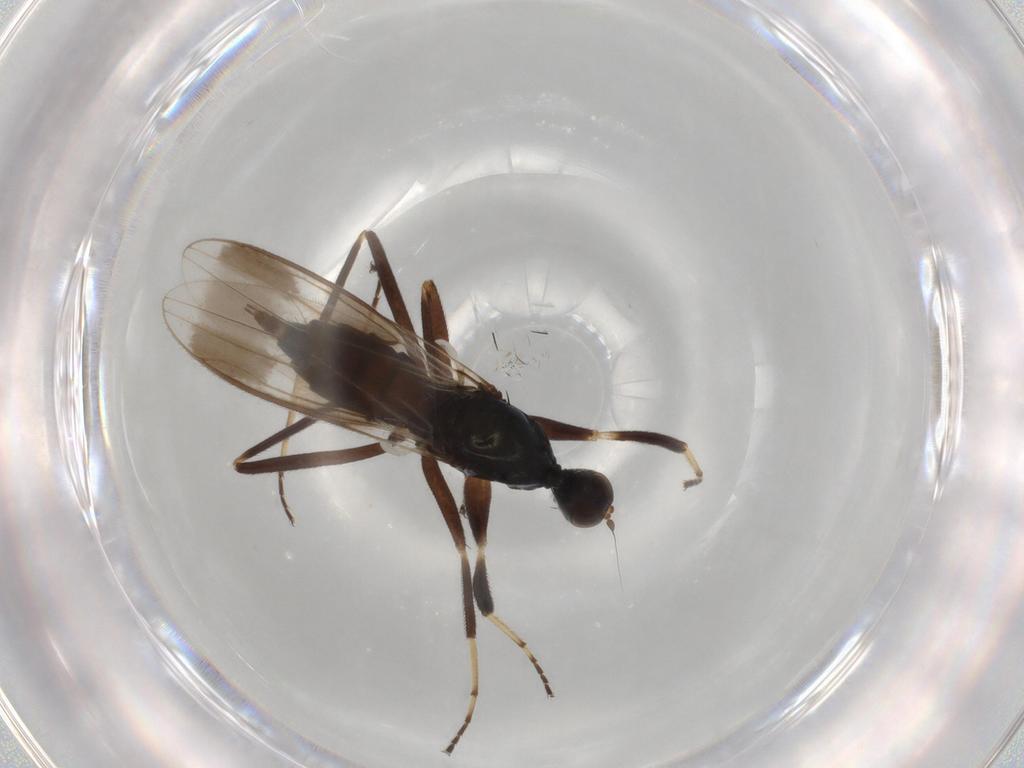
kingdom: Animalia
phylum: Arthropoda
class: Insecta
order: Diptera
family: Hybotidae
